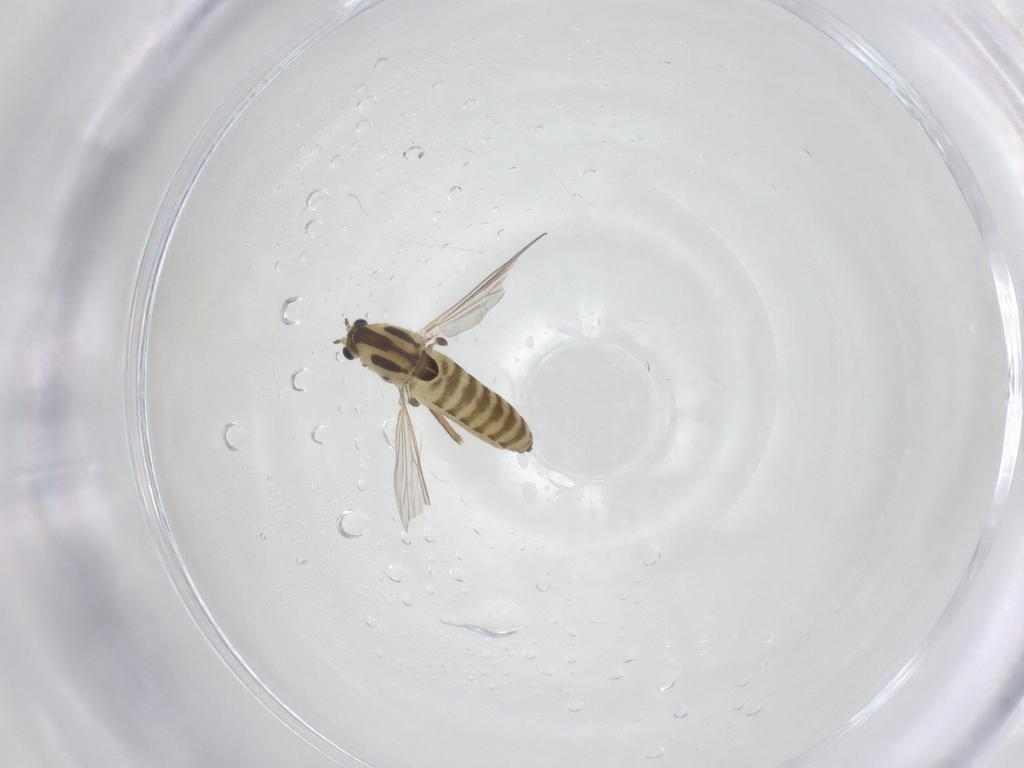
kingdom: Animalia
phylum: Arthropoda
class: Insecta
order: Diptera
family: Chironomidae
